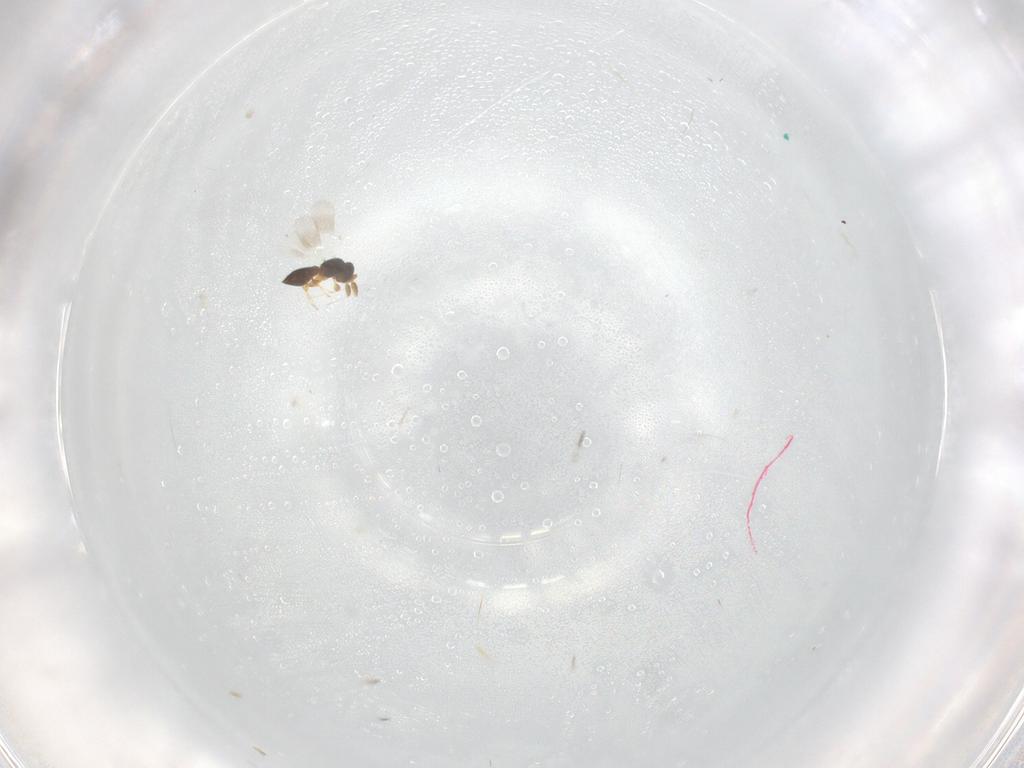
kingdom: Animalia
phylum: Arthropoda
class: Insecta
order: Hymenoptera
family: Platygastridae
